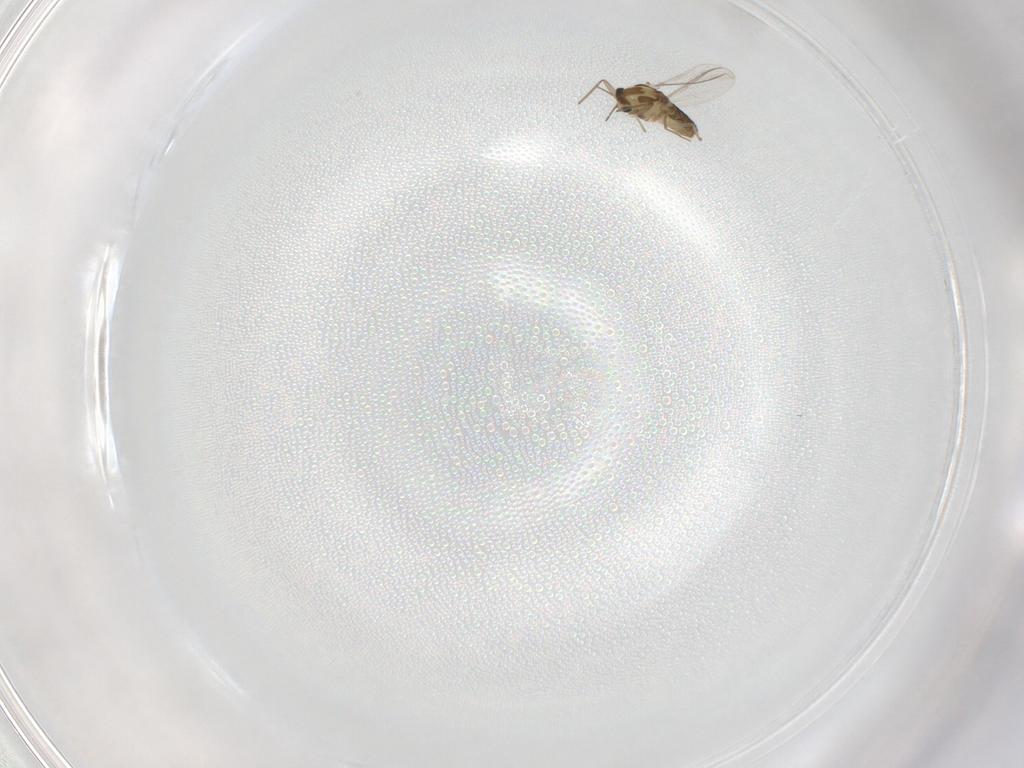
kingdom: Animalia
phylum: Arthropoda
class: Insecta
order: Diptera
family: Chironomidae
